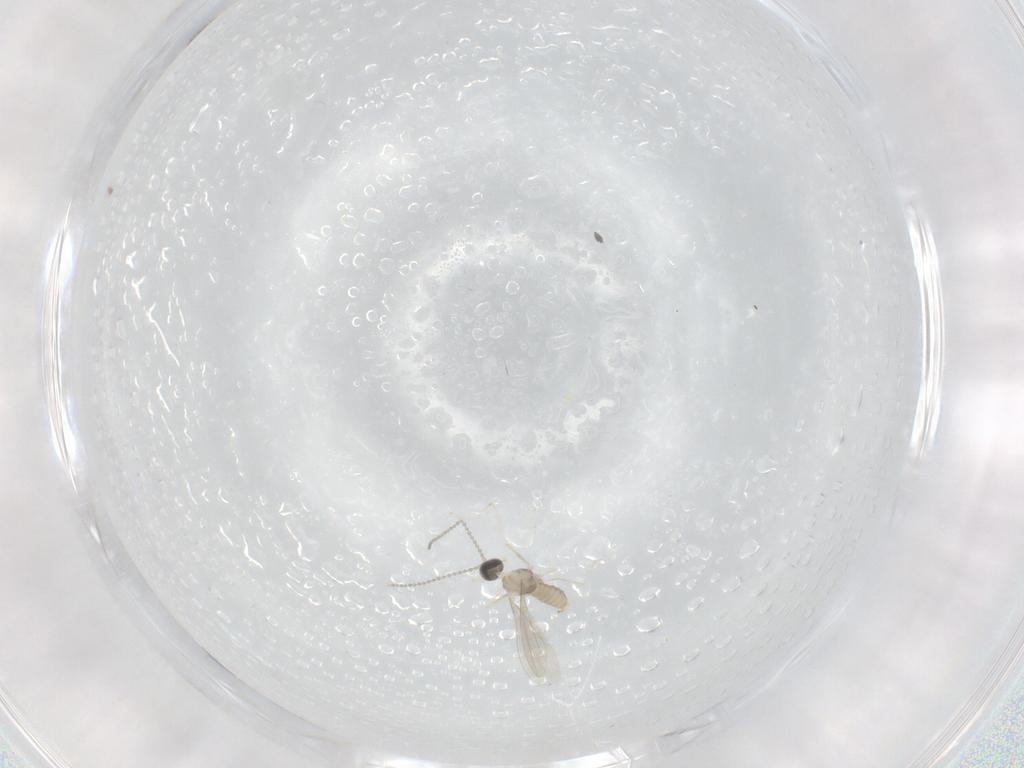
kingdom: Animalia
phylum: Arthropoda
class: Insecta
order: Diptera
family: Cecidomyiidae
